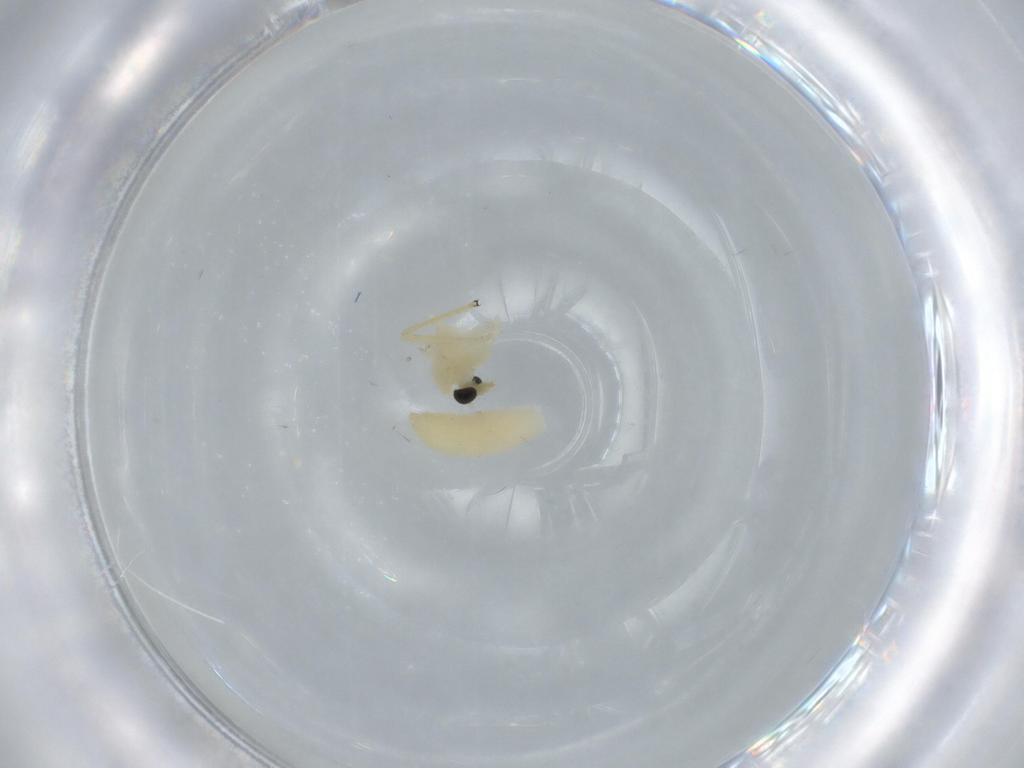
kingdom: Animalia
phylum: Arthropoda
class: Insecta
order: Diptera
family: Chironomidae
